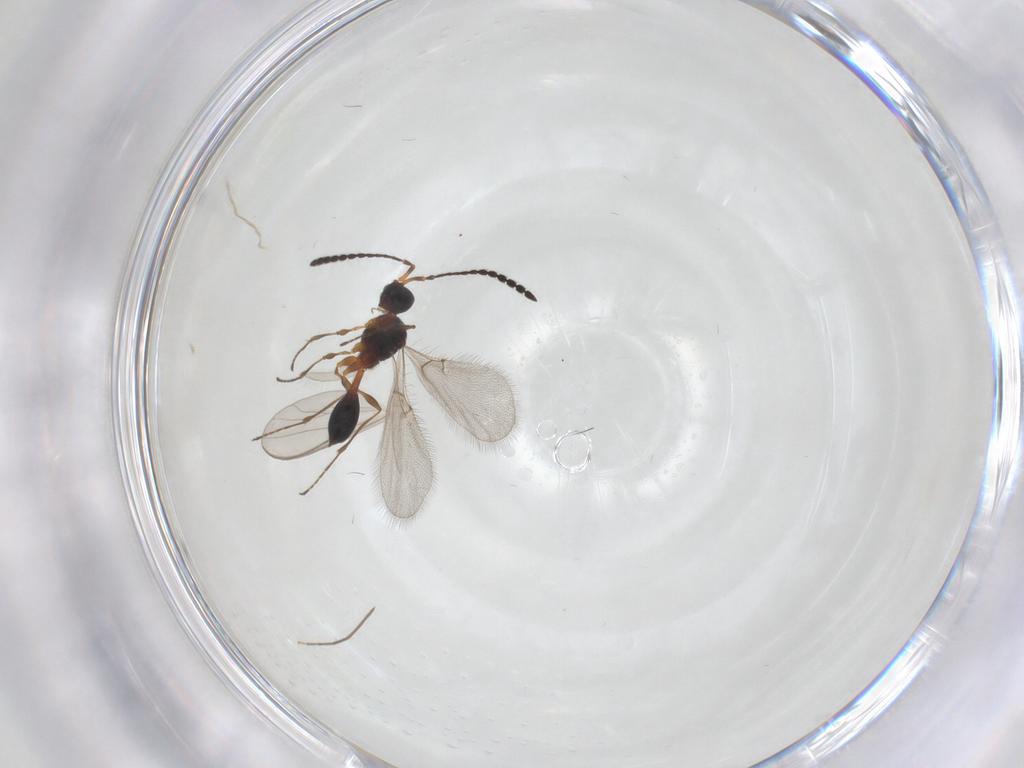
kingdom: Animalia
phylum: Arthropoda
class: Insecta
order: Hymenoptera
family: Diapriidae
